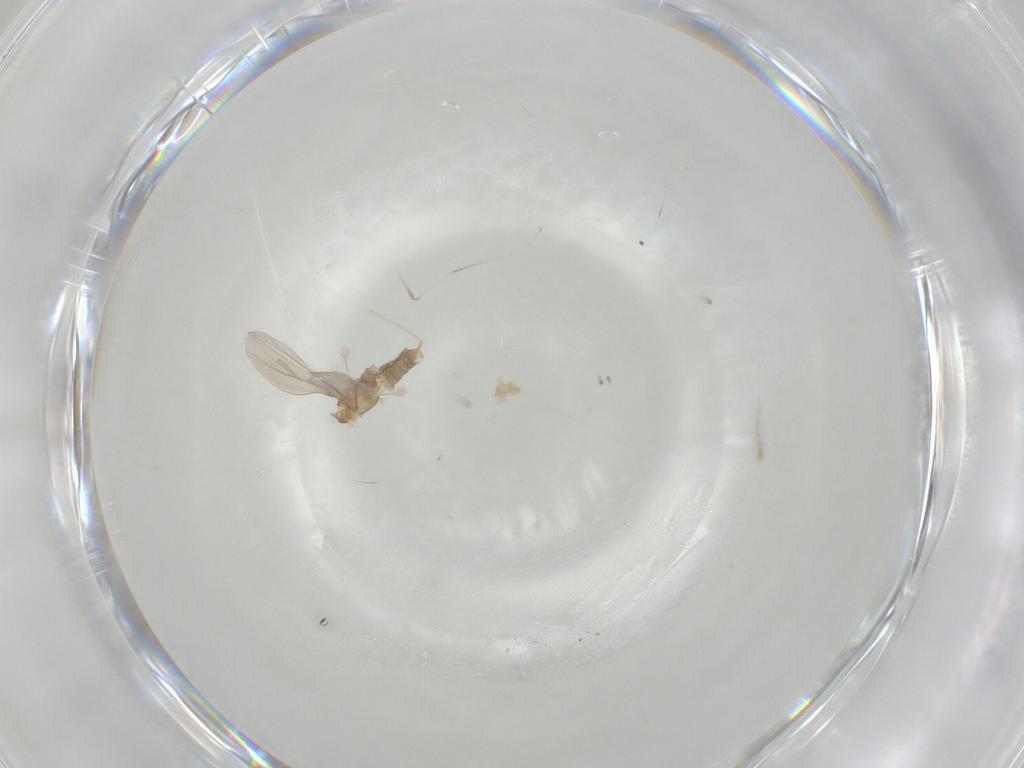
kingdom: Animalia
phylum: Arthropoda
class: Insecta
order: Diptera
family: Cecidomyiidae
